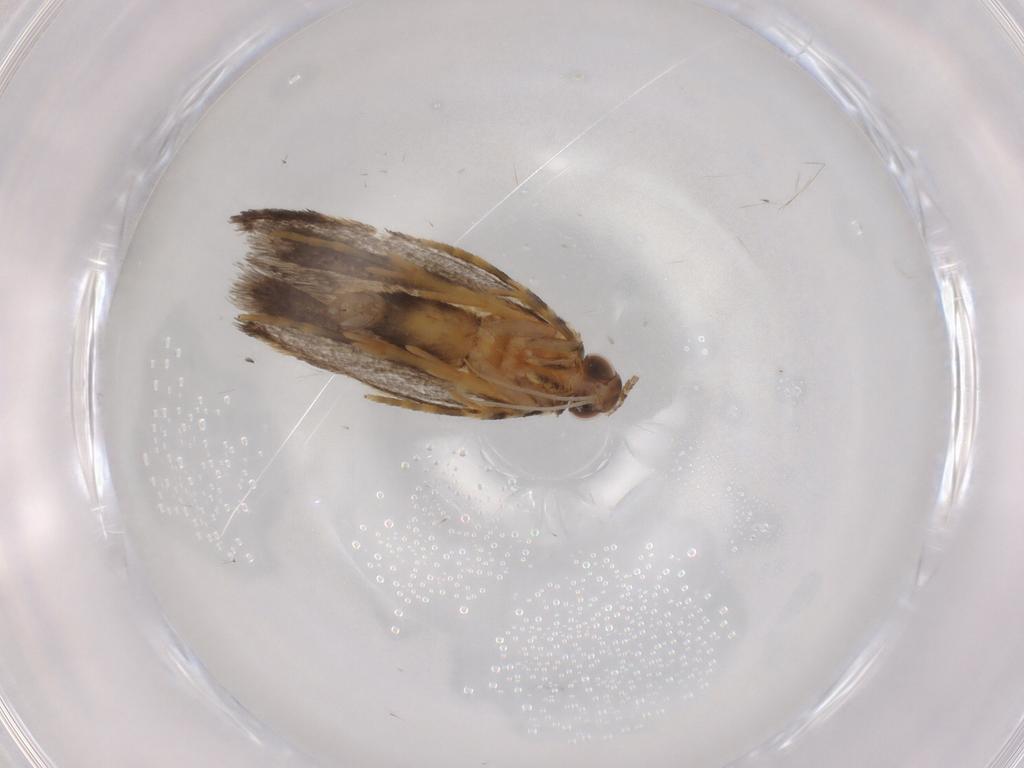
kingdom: Animalia
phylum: Arthropoda
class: Insecta
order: Lepidoptera
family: Autostichidae
